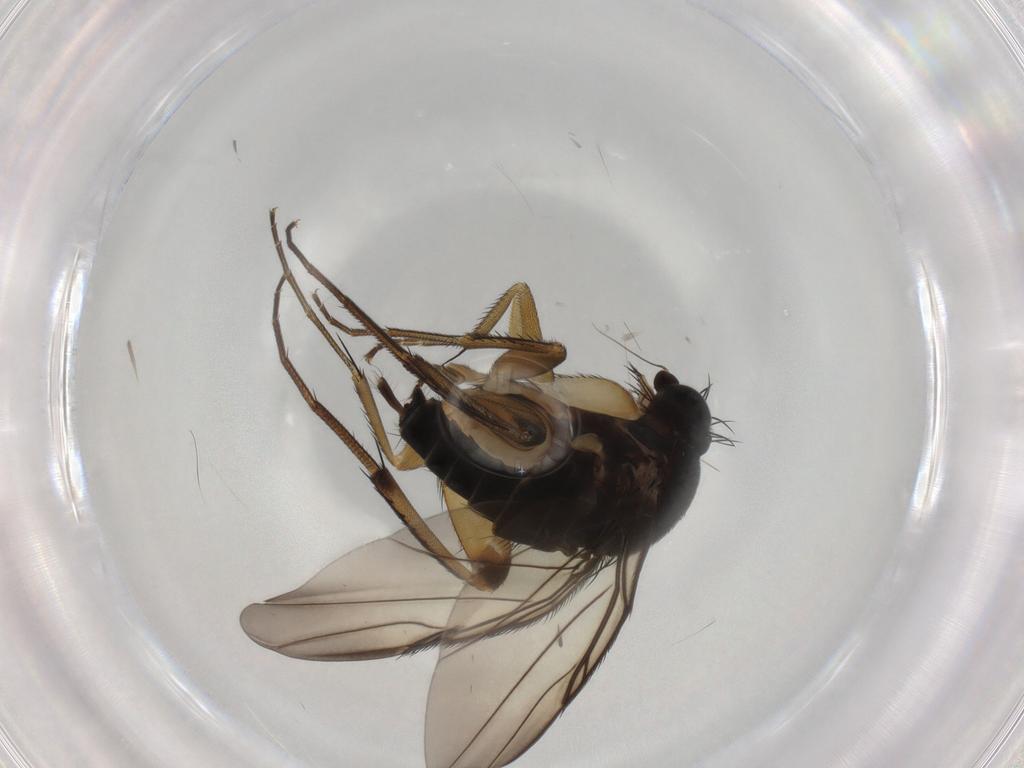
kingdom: Animalia
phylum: Arthropoda
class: Insecta
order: Diptera
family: Phoridae
